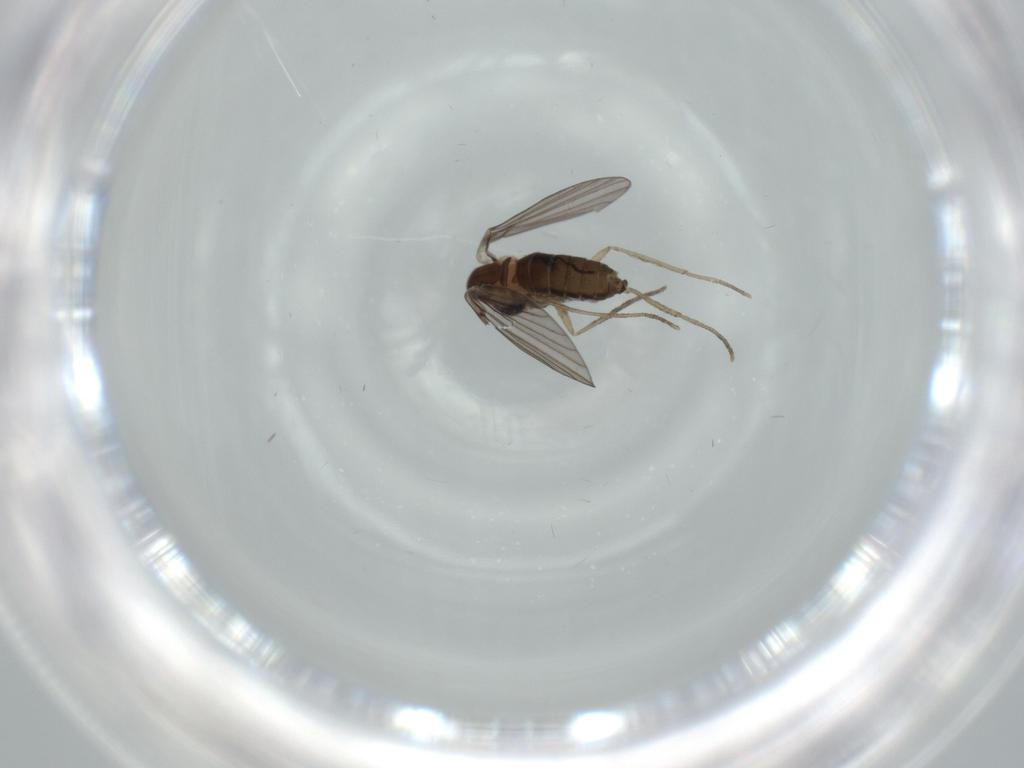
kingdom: Animalia
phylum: Arthropoda
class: Insecta
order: Diptera
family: Psychodidae
